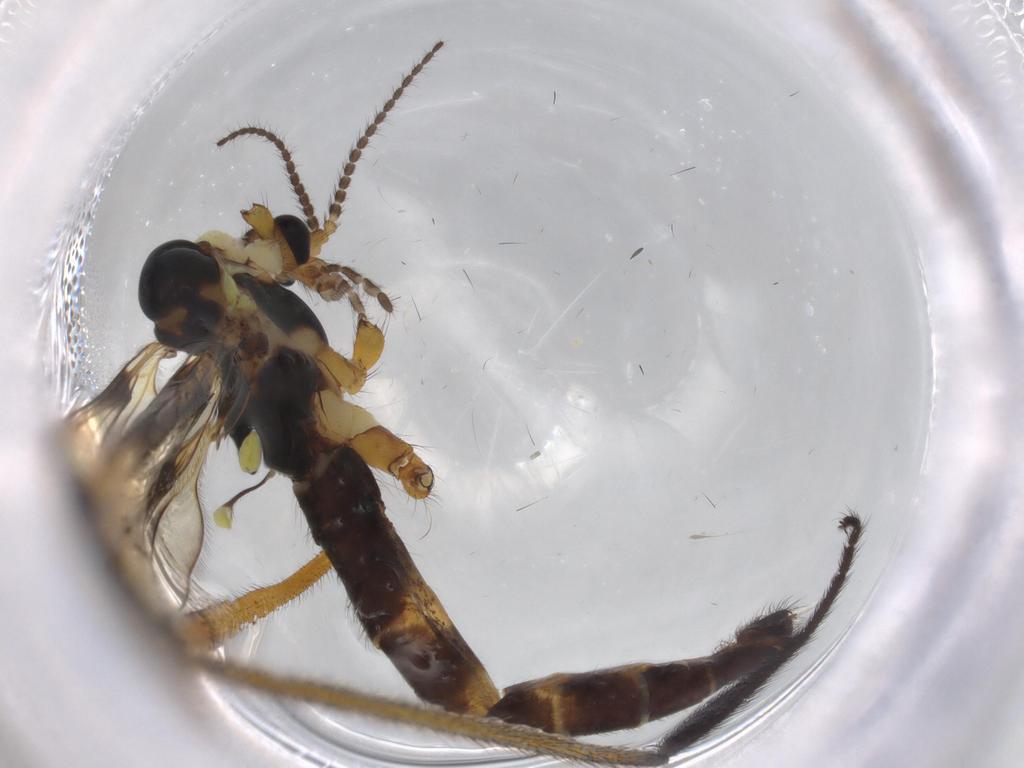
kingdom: Animalia
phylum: Arthropoda
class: Insecta
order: Diptera
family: Limoniidae
